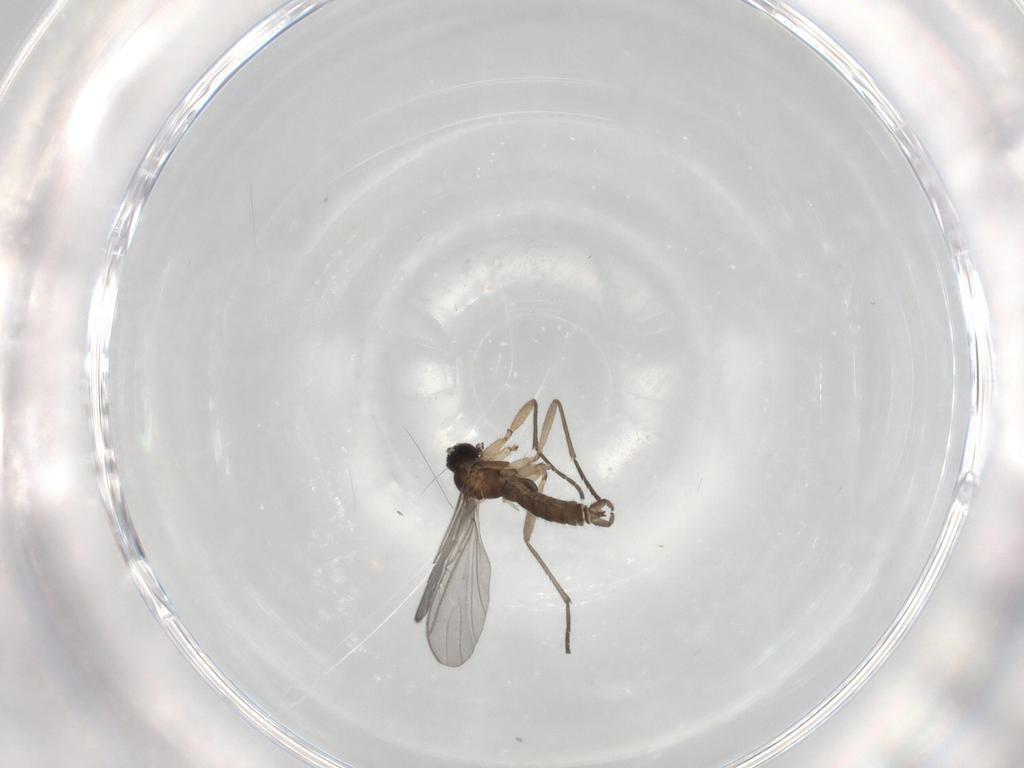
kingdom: Animalia
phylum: Arthropoda
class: Insecta
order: Diptera
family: Sciaridae
